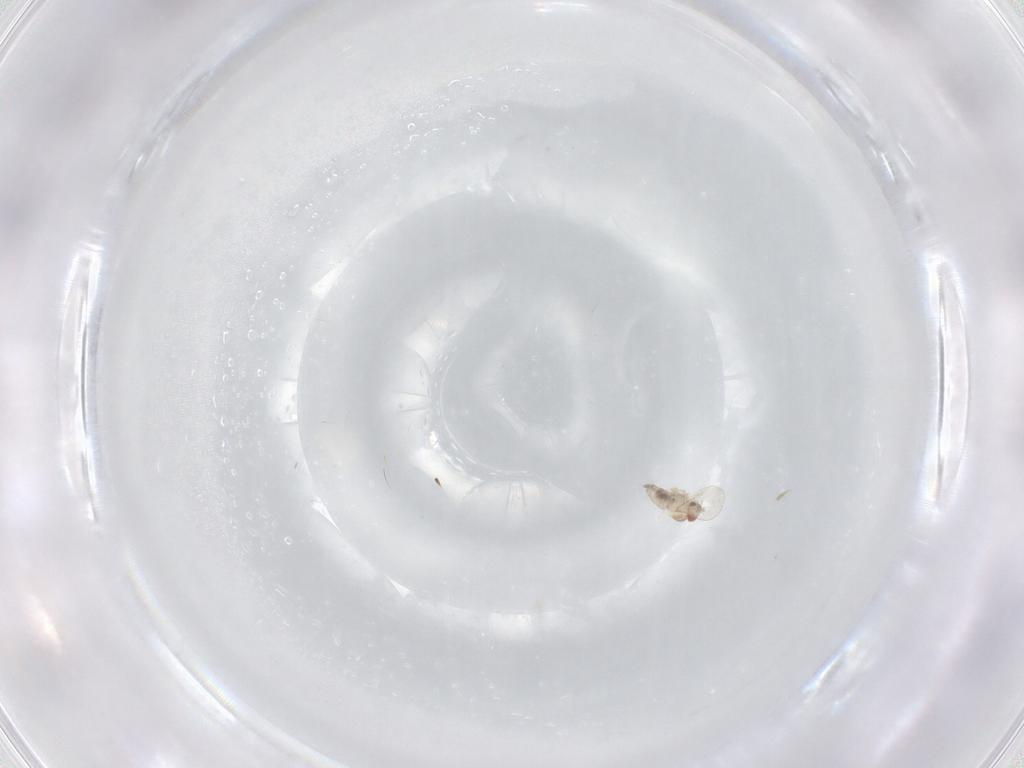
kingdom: Animalia
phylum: Arthropoda
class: Insecta
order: Diptera
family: Cecidomyiidae
